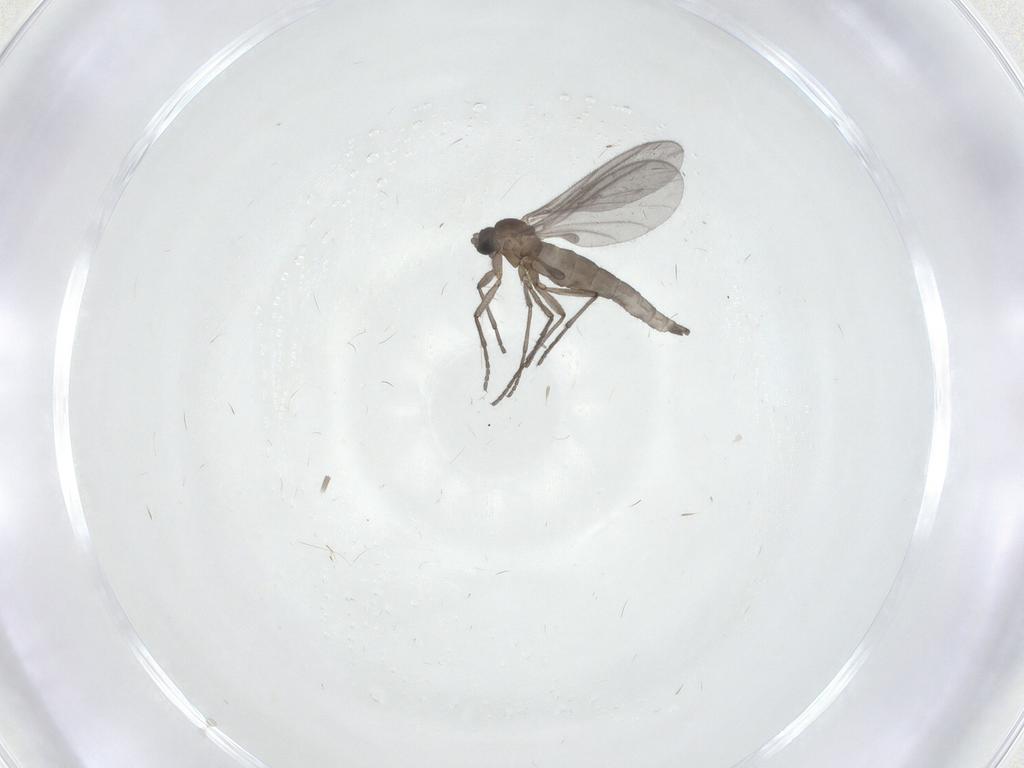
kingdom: Animalia
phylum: Arthropoda
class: Insecta
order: Diptera
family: Sciaridae
